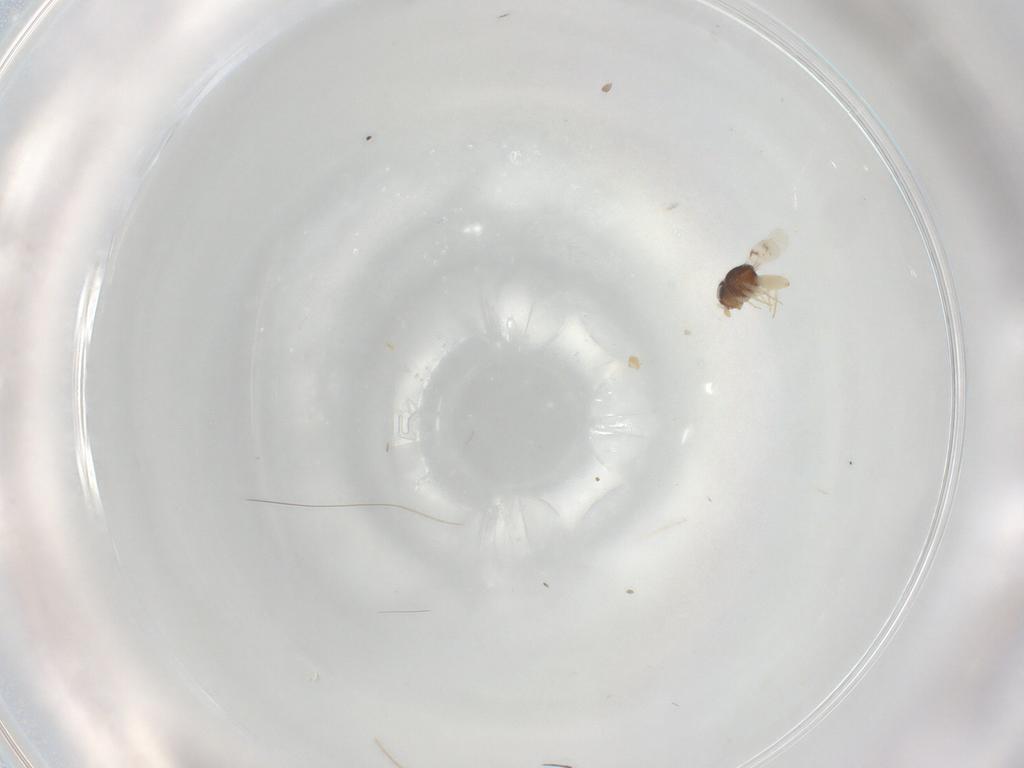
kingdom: Animalia
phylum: Arthropoda
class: Insecta
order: Hymenoptera
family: Scelionidae
